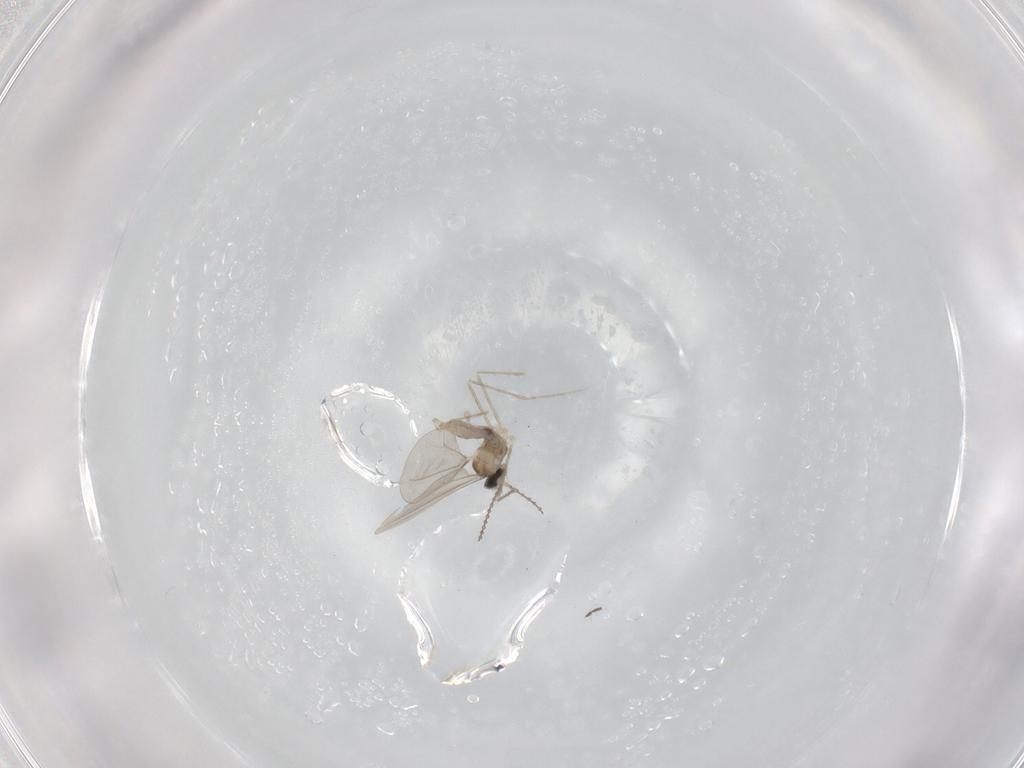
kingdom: Animalia
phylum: Arthropoda
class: Insecta
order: Diptera
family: Cecidomyiidae
